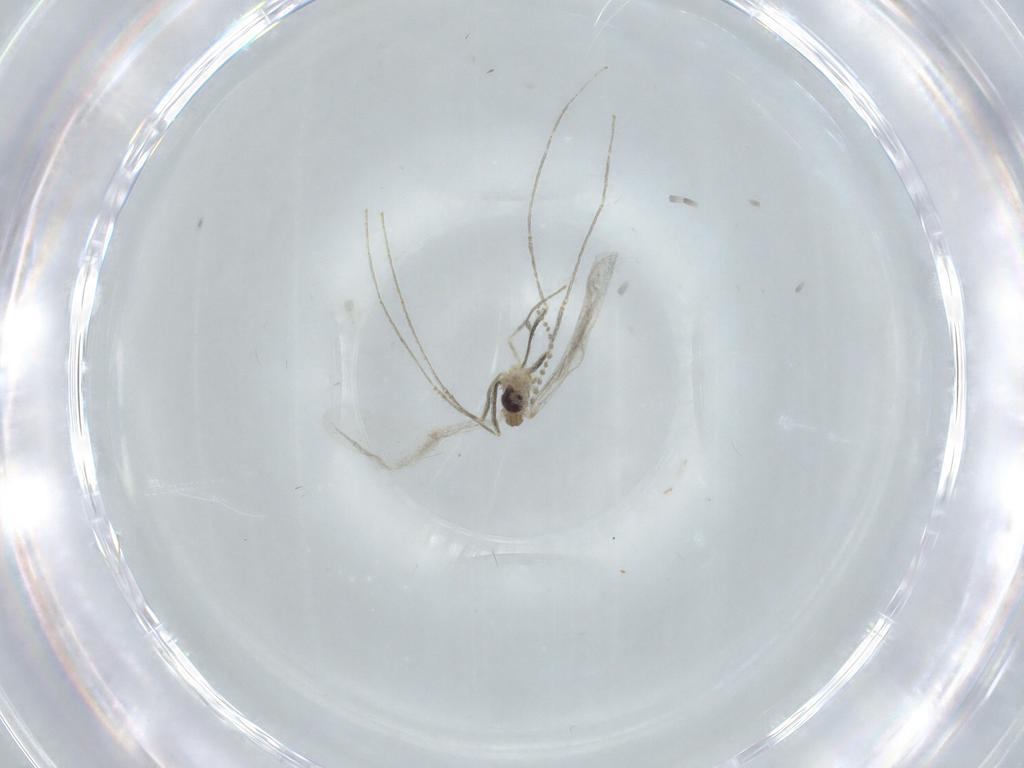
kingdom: Animalia
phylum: Arthropoda
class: Insecta
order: Diptera
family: Cecidomyiidae
